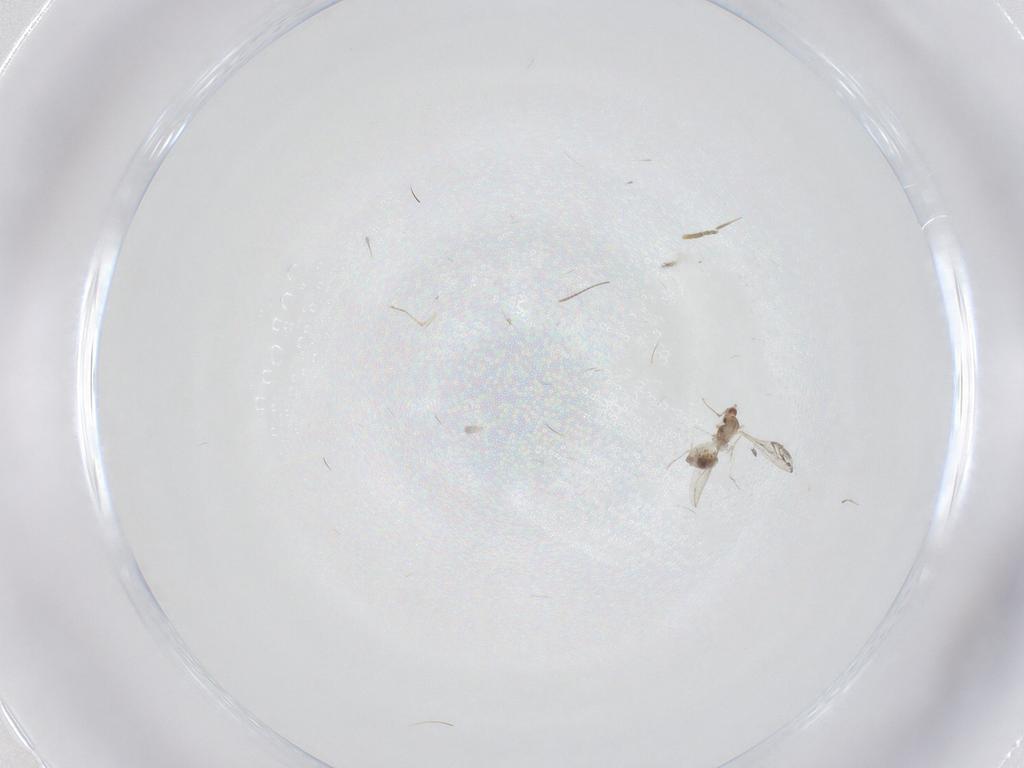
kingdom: Animalia
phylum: Arthropoda
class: Insecta
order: Diptera
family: Cecidomyiidae
